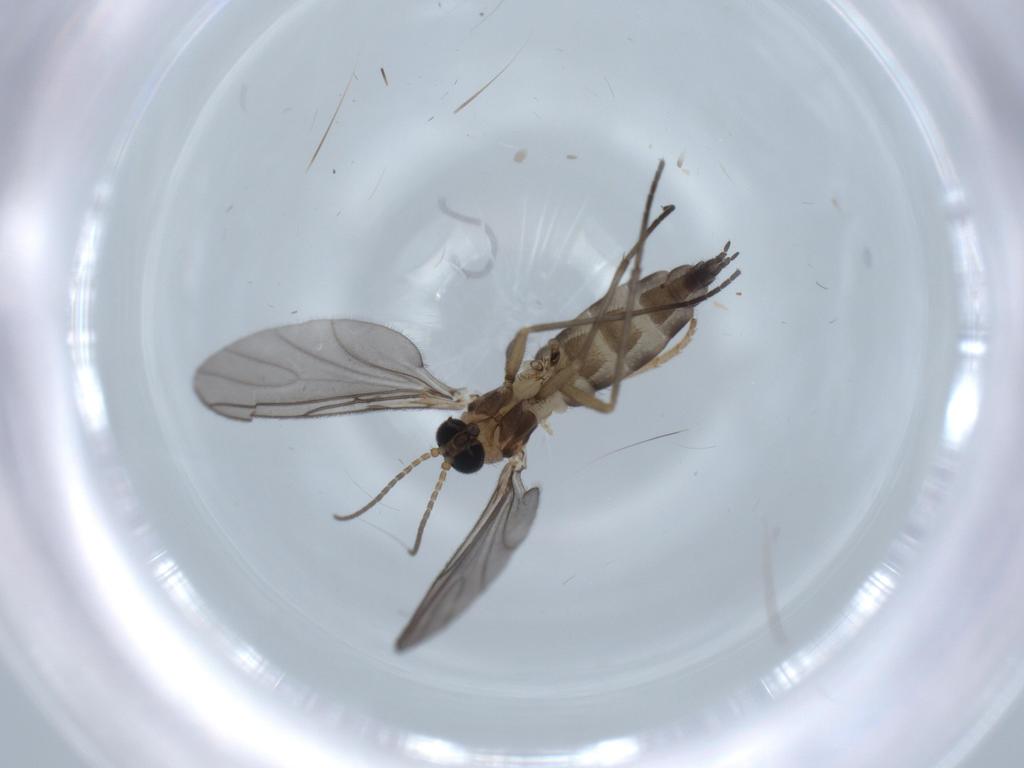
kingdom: Animalia
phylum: Arthropoda
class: Insecta
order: Diptera
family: Sciaridae
